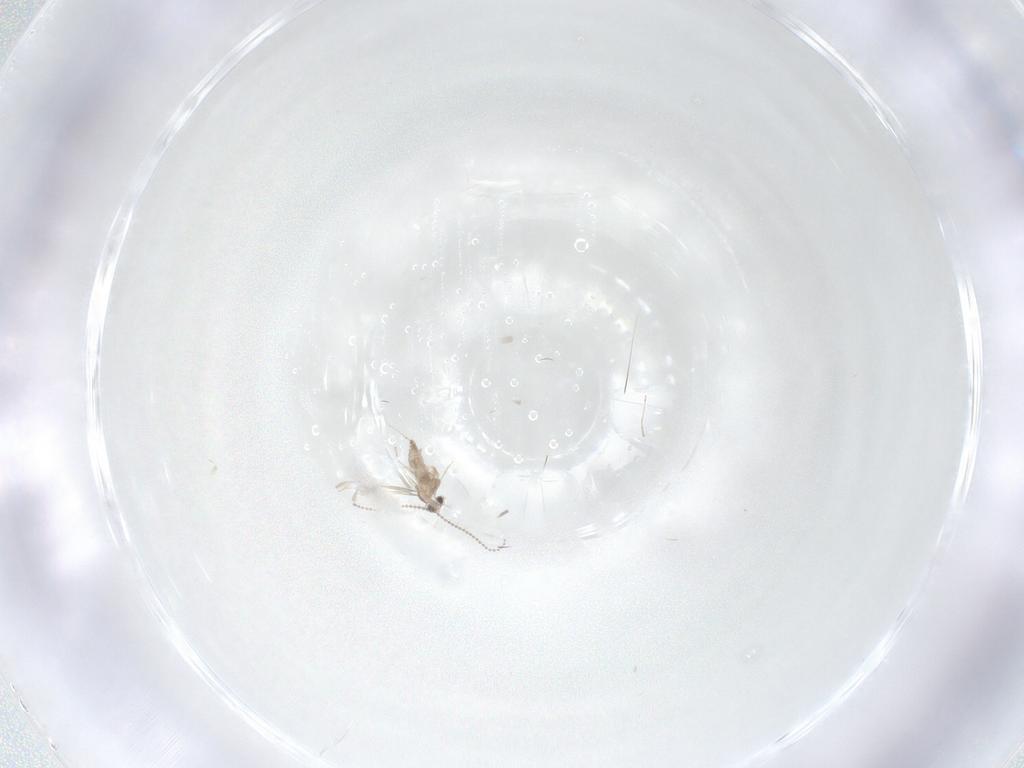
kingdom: Animalia
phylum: Arthropoda
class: Insecta
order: Diptera
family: Cecidomyiidae
